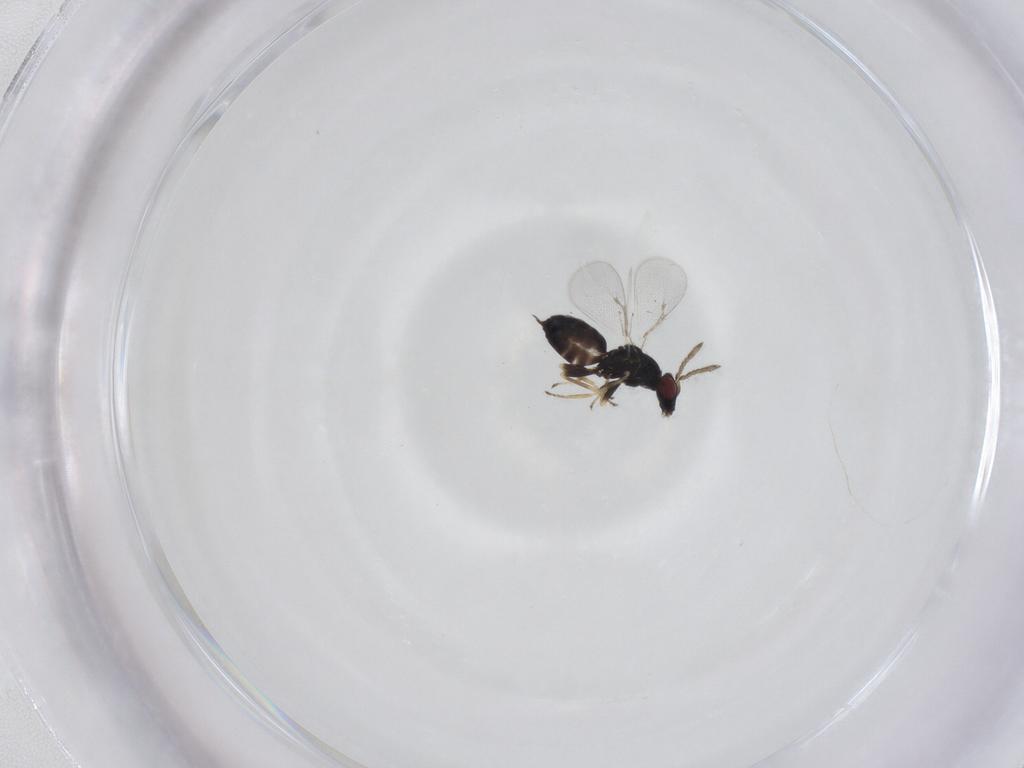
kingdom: Animalia
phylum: Arthropoda
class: Insecta
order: Hymenoptera
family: Eulophidae
